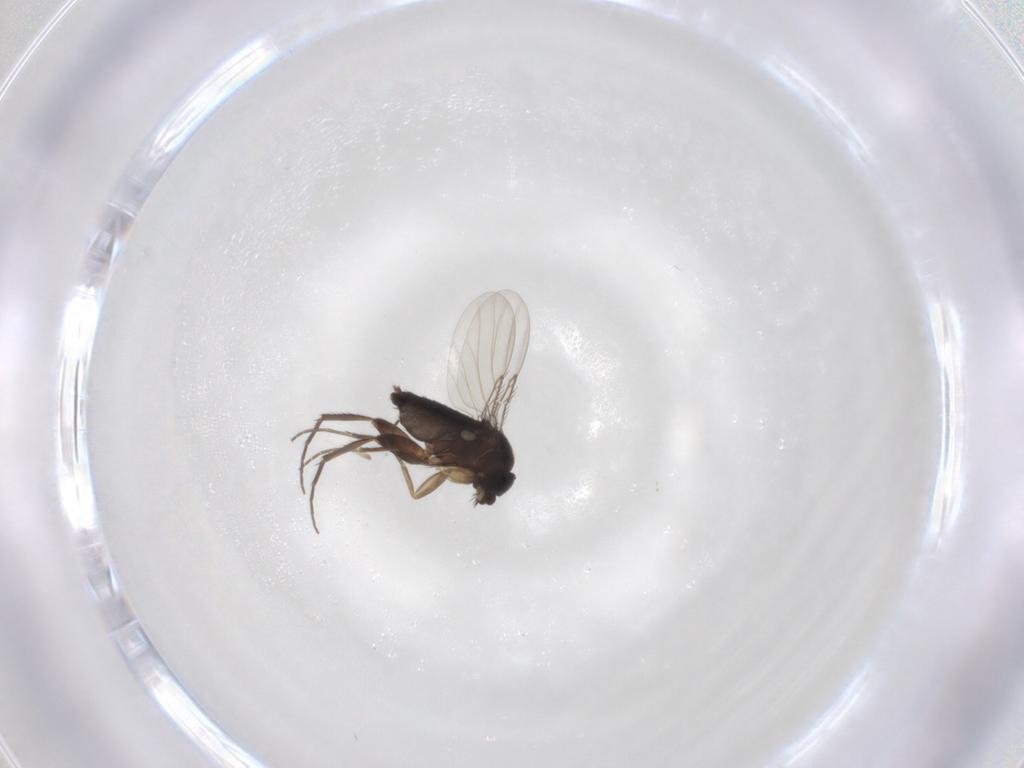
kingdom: Animalia
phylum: Arthropoda
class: Insecta
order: Diptera
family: Phoridae
